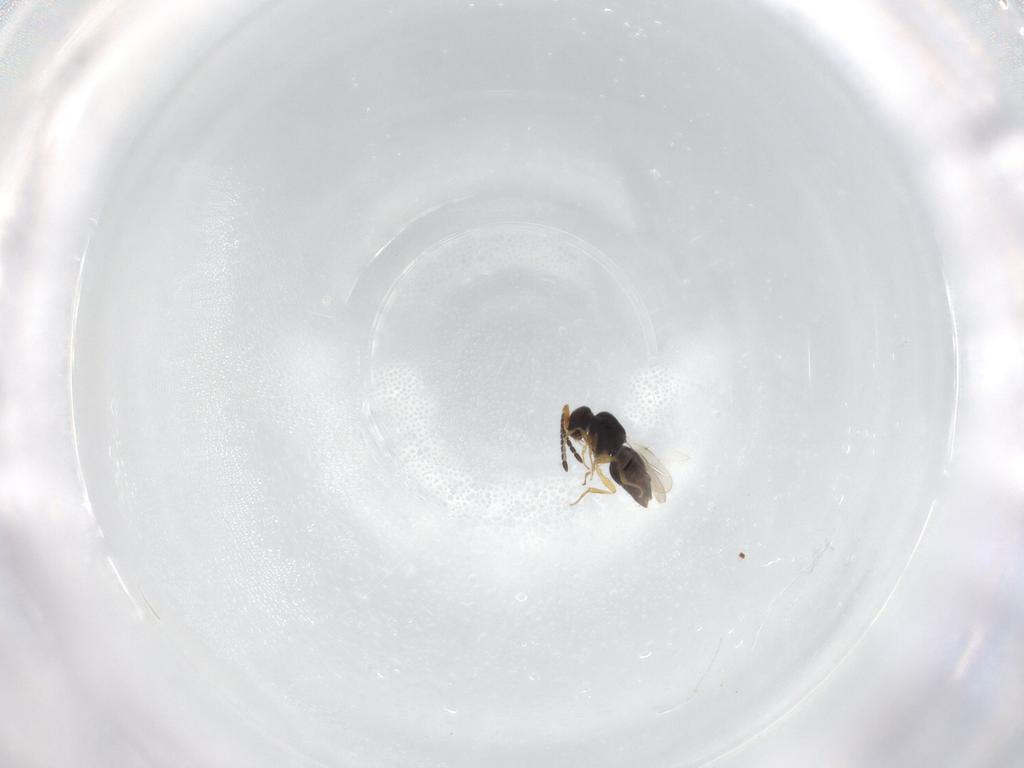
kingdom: Animalia
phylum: Arthropoda
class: Insecta
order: Hymenoptera
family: Ceraphronidae
